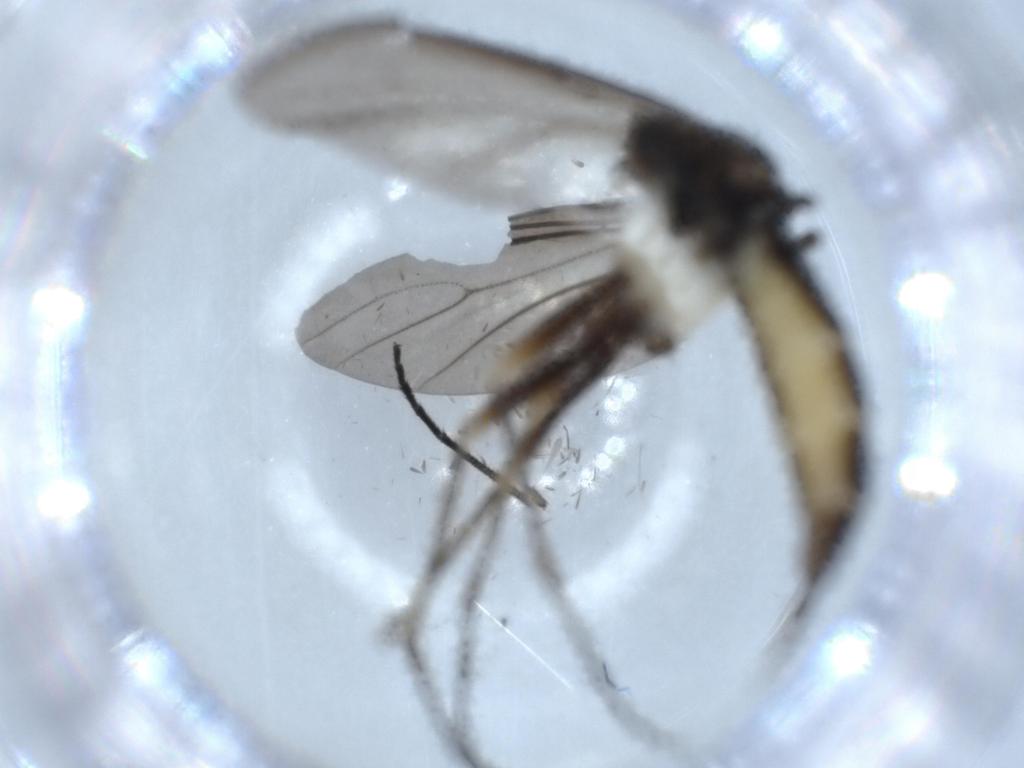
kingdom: Animalia
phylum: Arthropoda
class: Insecta
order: Diptera
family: Sciaridae
